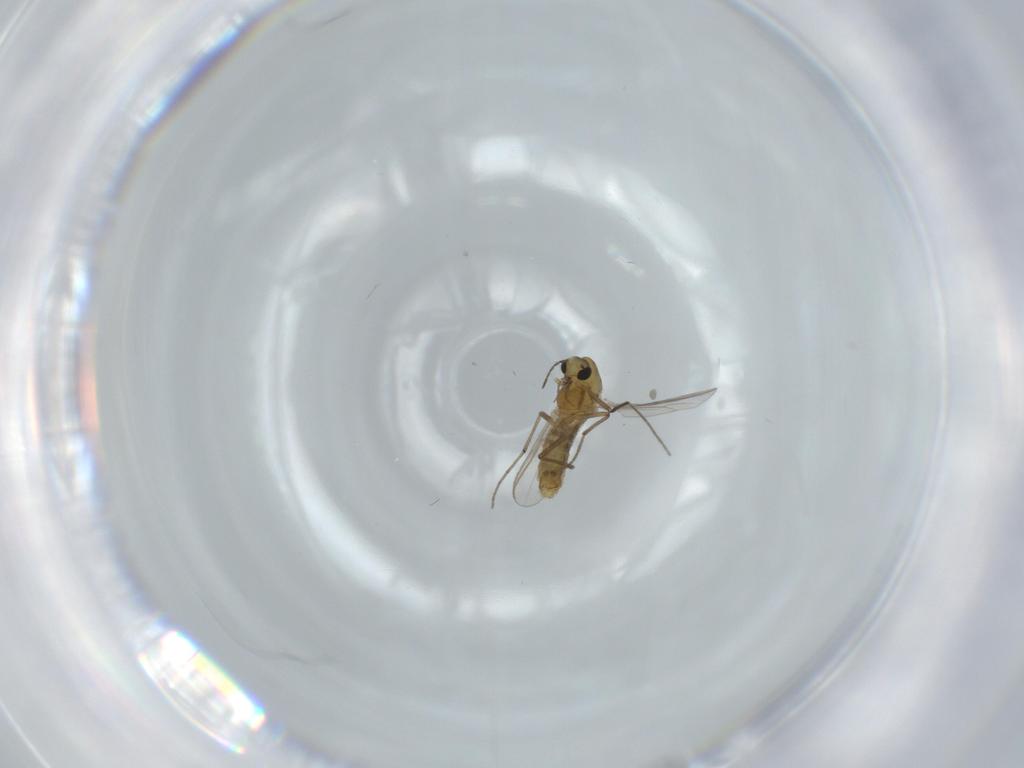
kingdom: Animalia
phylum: Arthropoda
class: Insecta
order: Diptera
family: Chironomidae
